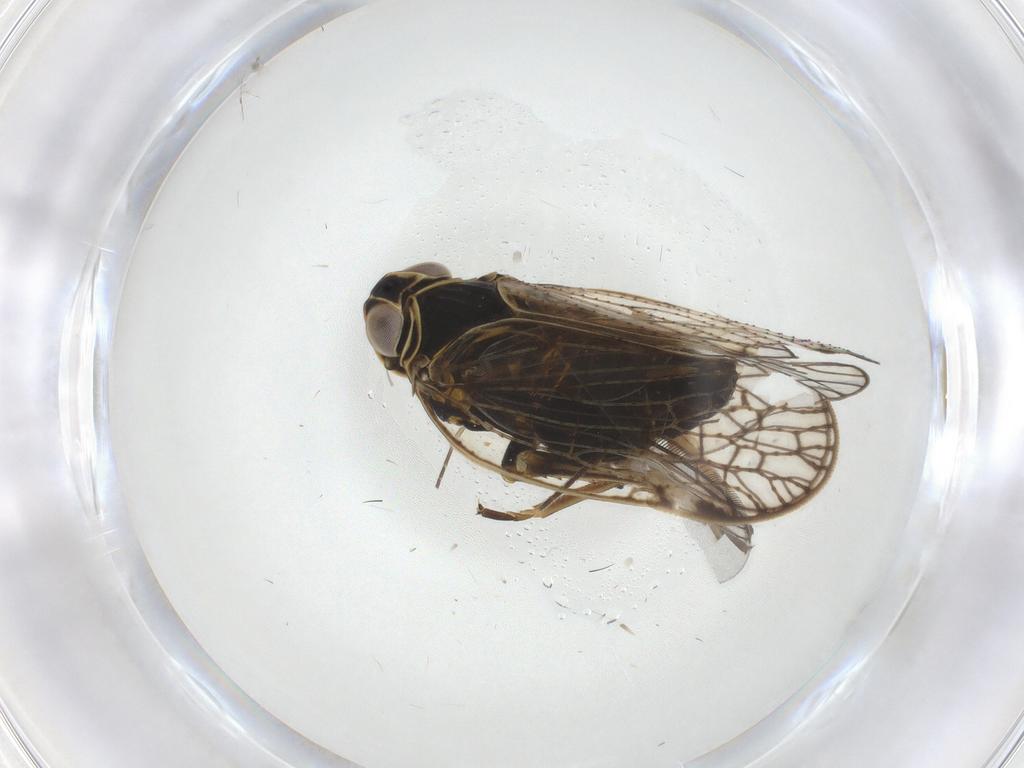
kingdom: Animalia
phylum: Arthropoda
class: Insecta
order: Hemiptera
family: Cixiidae
